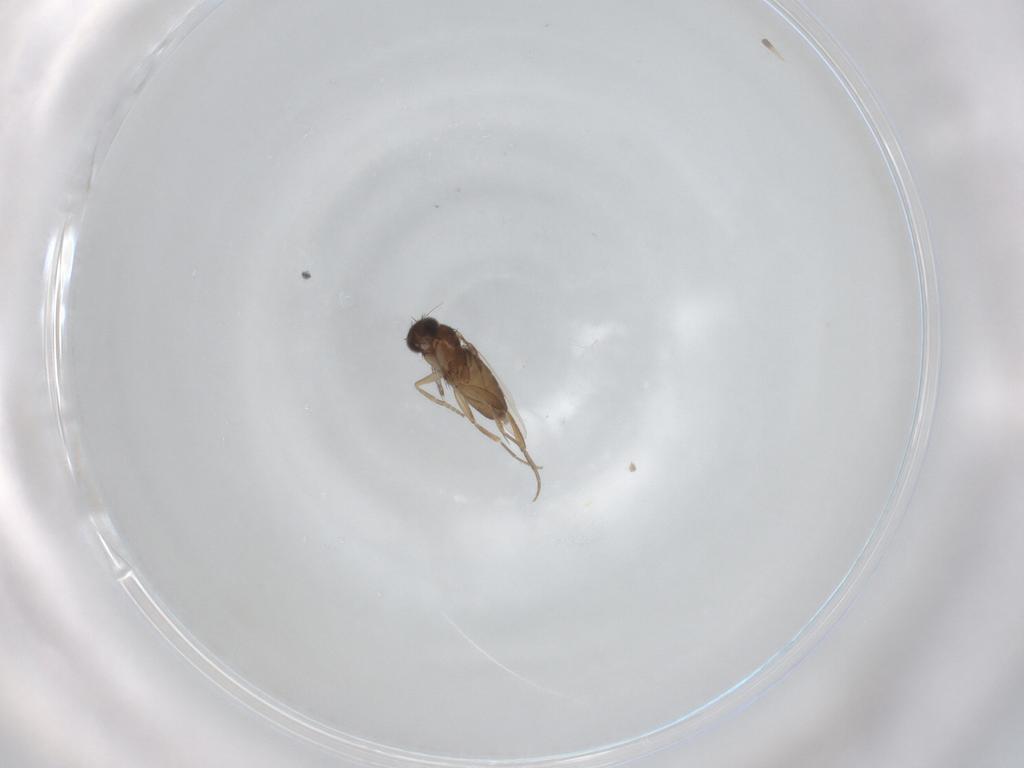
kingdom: Animalia
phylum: Arthropoda
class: Insecta
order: Diptera
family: Phoridae
